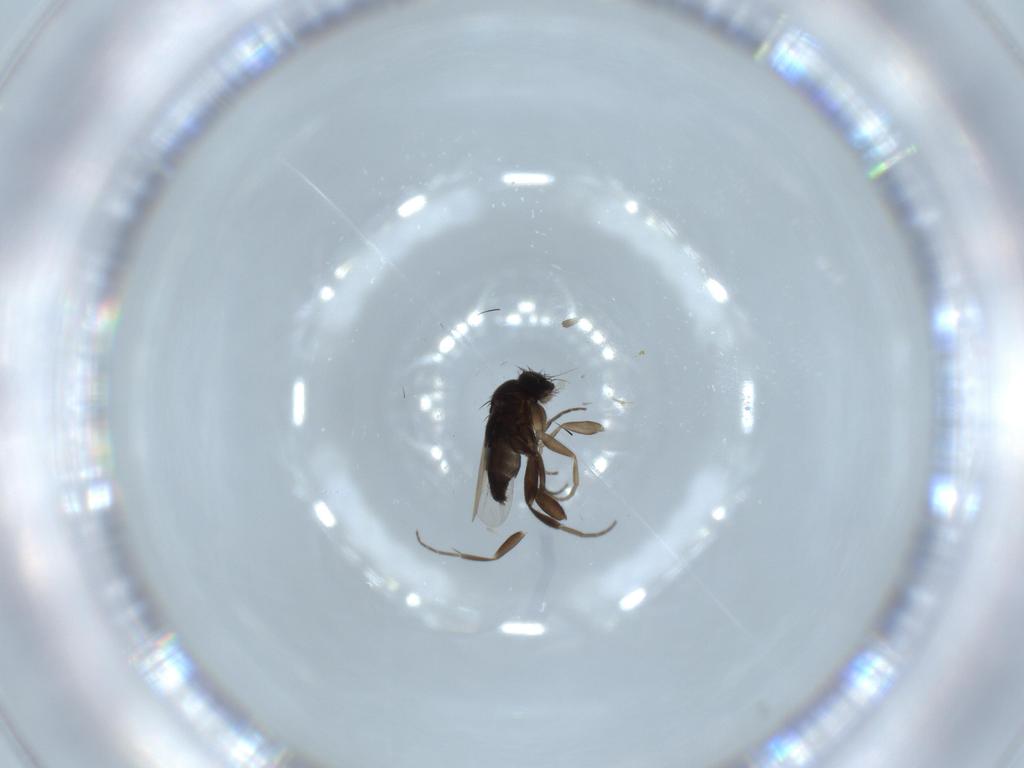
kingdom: Animalia
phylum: Arthropoda
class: Insecta
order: Diptera
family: Phoridae
